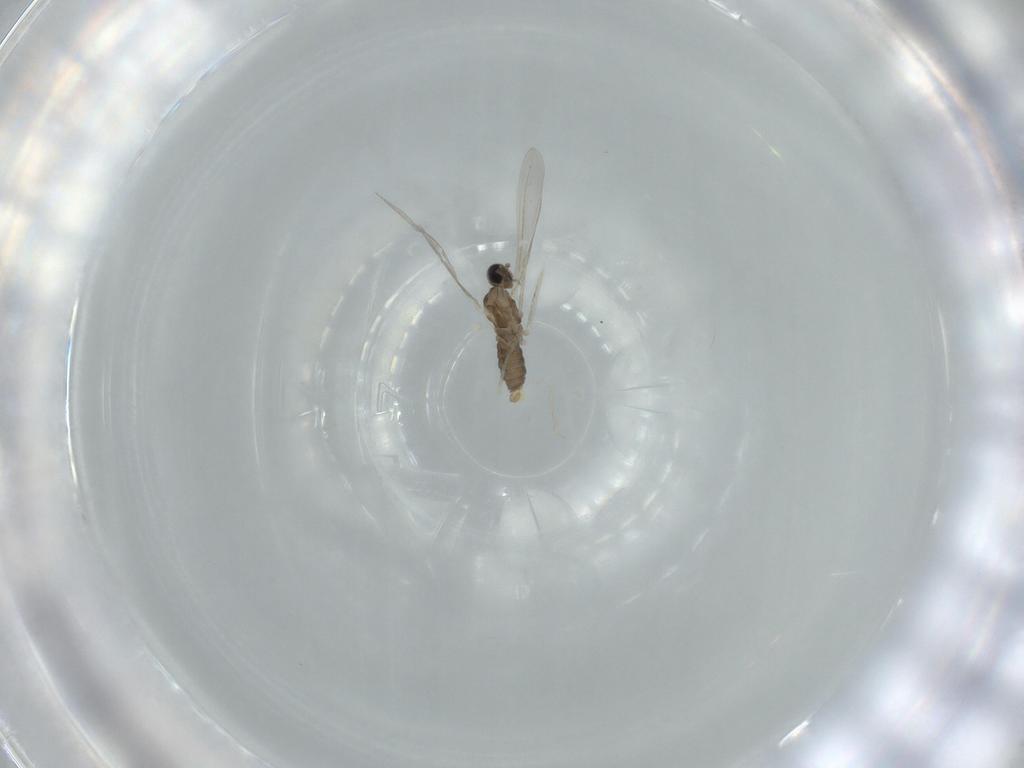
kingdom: Animalia
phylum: Arthropoda
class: Insecta
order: Diptera
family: Cecidomyiidae
